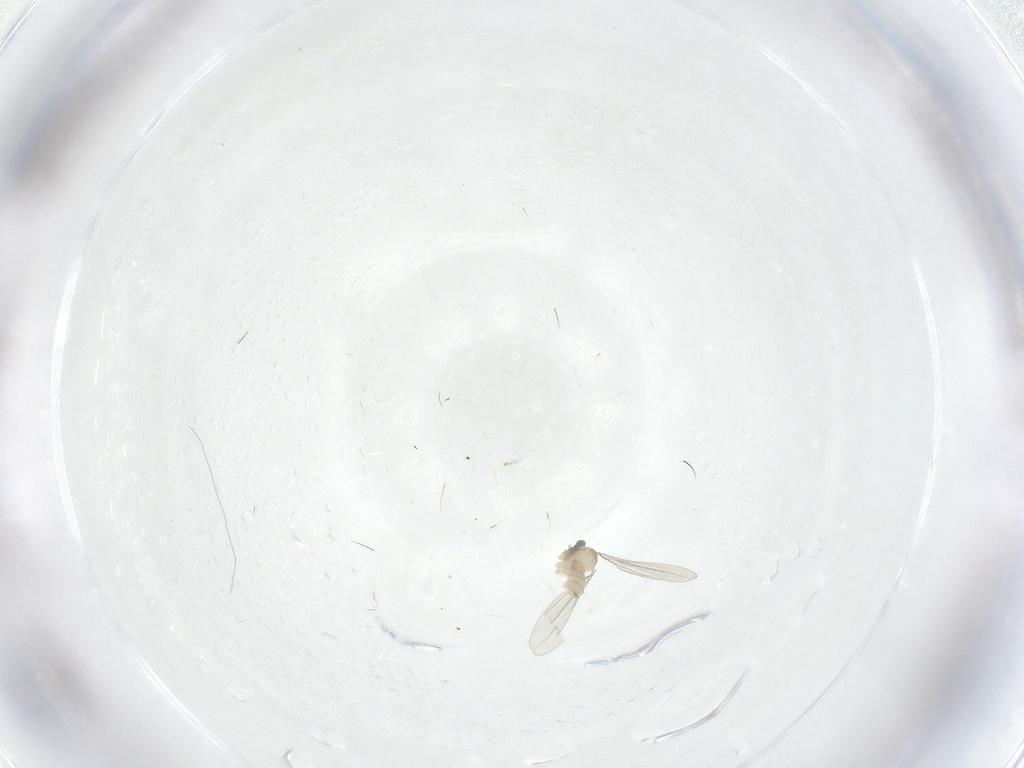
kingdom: Animalia
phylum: Arthropoda
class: Insecta
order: Diptera
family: Cecidomyiidae
